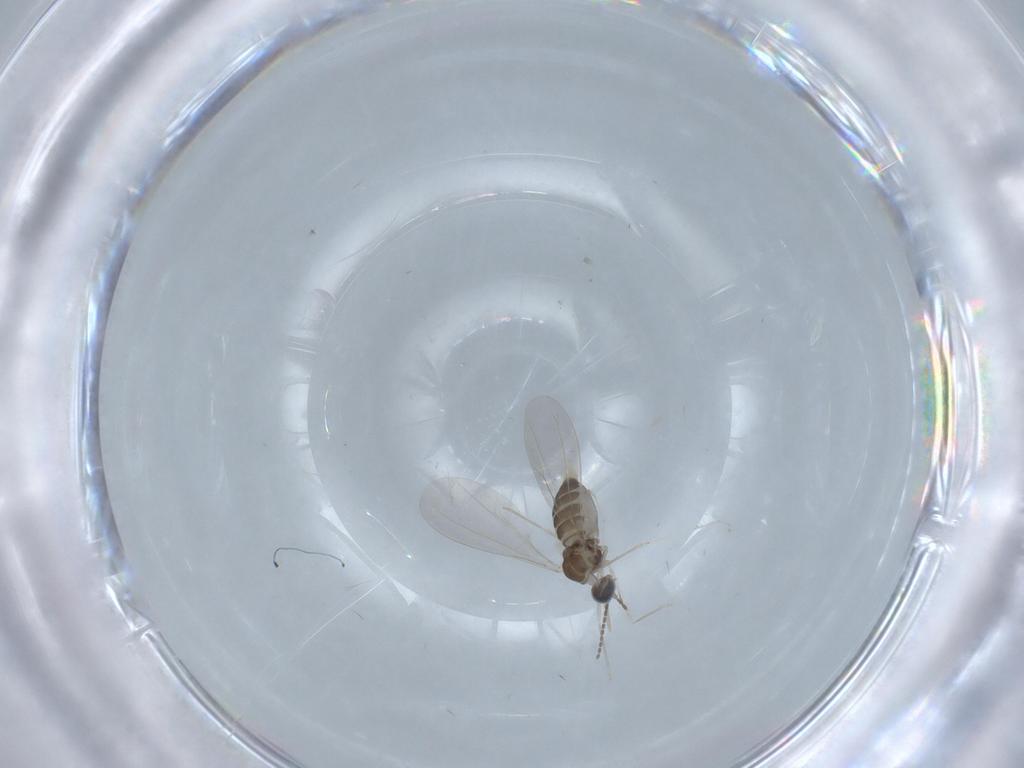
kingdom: Animalia
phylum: Arthropoda
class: Insecta
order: Diptera
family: Cecidomyiidae
